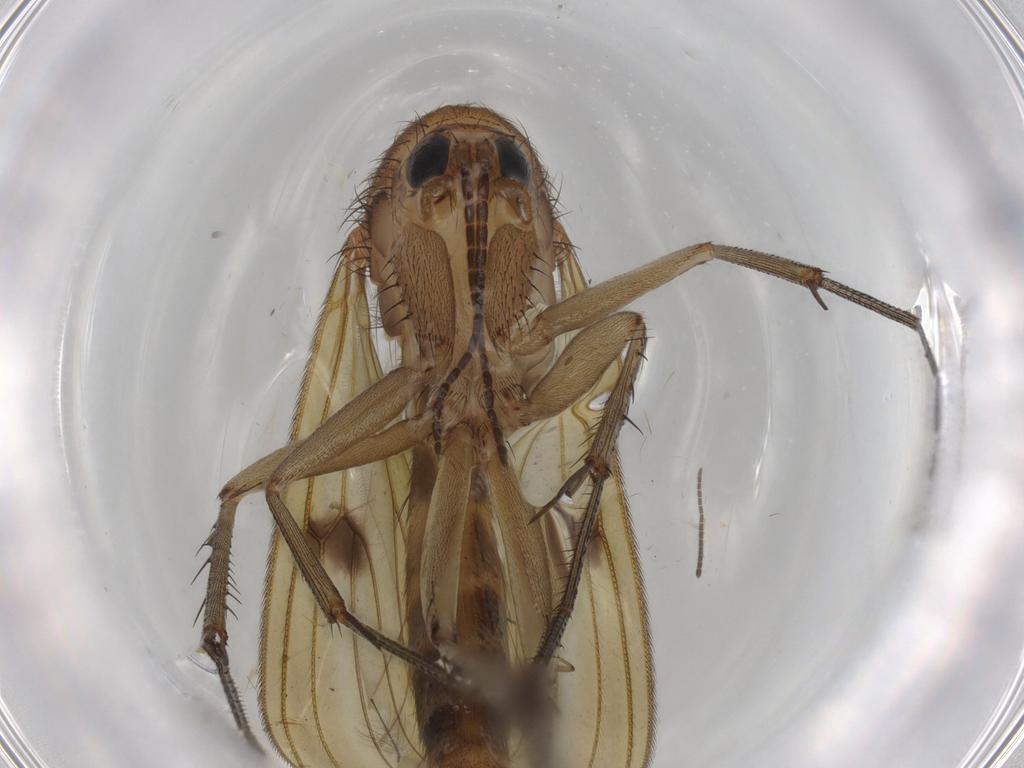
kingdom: Animalia
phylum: Arthropoda
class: Insecta
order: Diptera
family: Mycetophilidae
